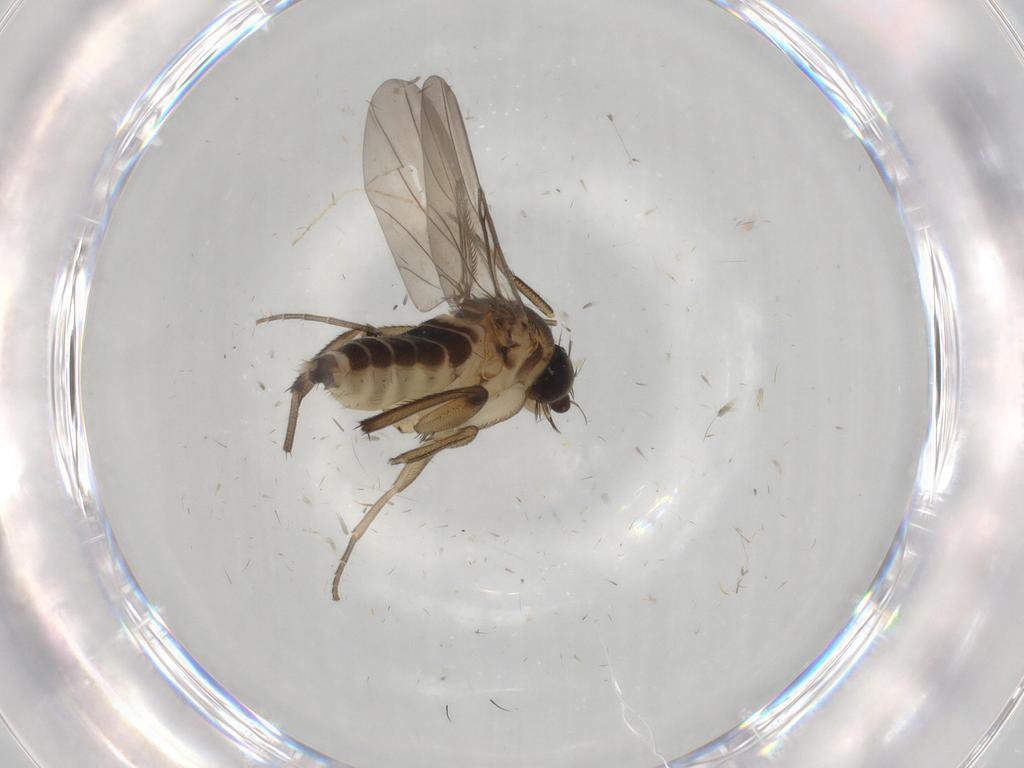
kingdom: Animalia
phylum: Arthropoda
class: Insecta
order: Diptera
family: Phoridae
